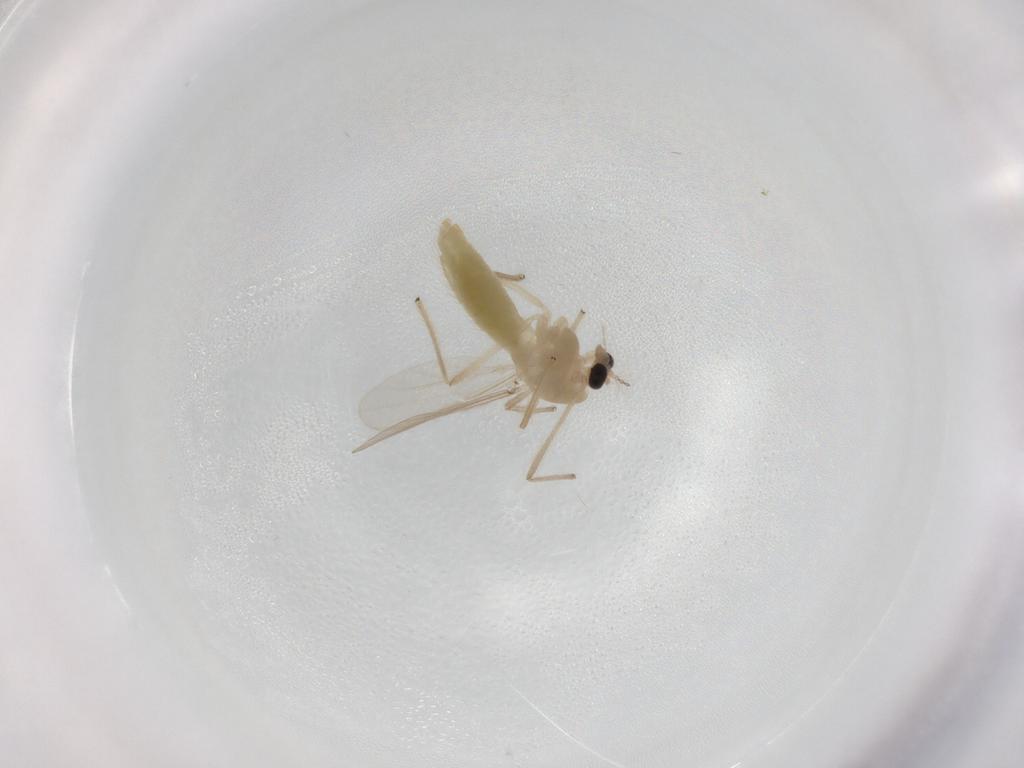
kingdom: Animalia
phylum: Arthropoda
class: Insecta
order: Diptera
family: Chironomidae
